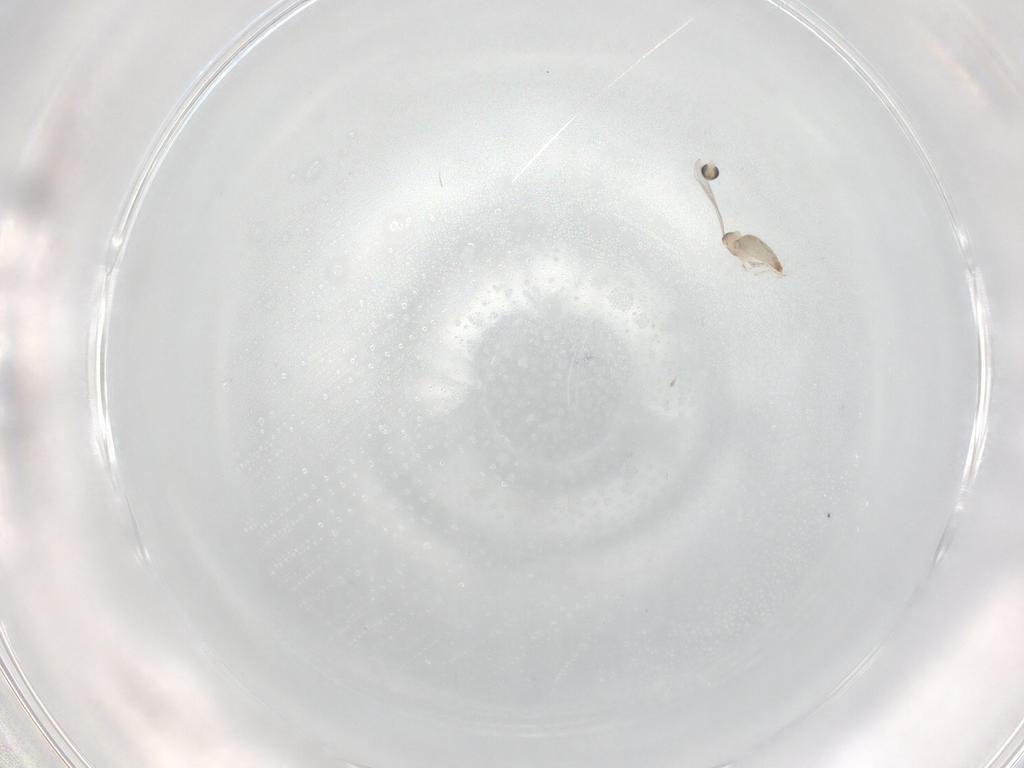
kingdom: Animalia
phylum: Arthropoda
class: Insecta
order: Diptera
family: Cecidomyiidae
